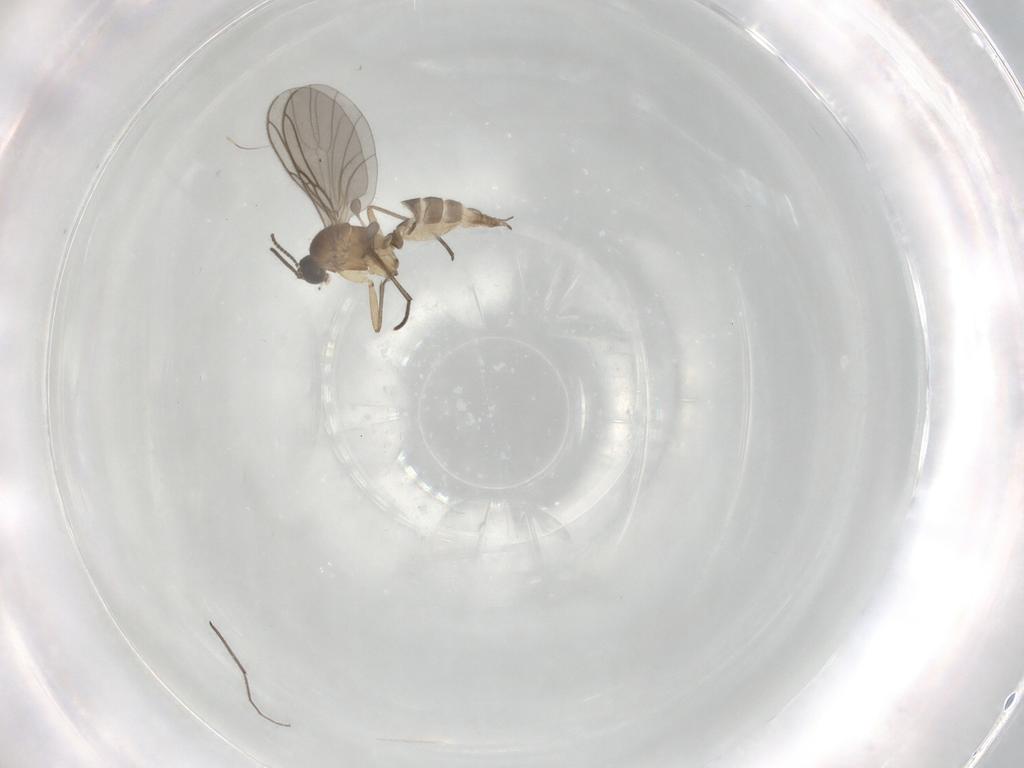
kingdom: Animalia
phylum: Arthropoda
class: Insecta
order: Diptera
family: Sciaridae
